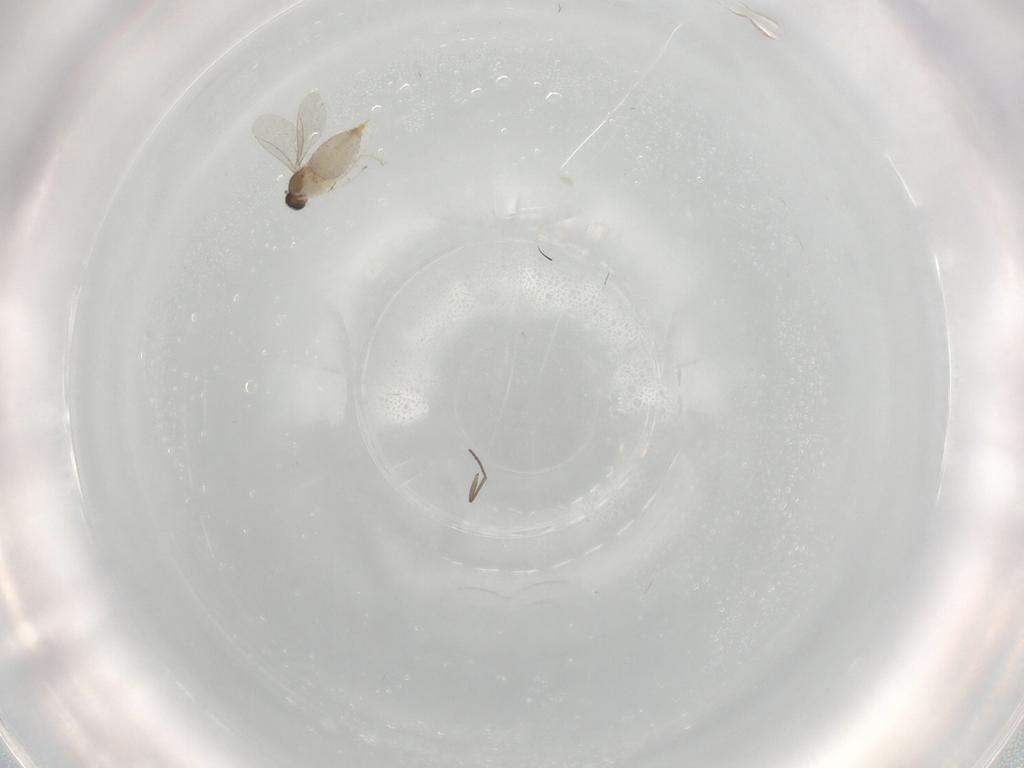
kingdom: Animalia
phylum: Arthropoda
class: Insecta
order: Diptera
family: Cecidomyiidae
